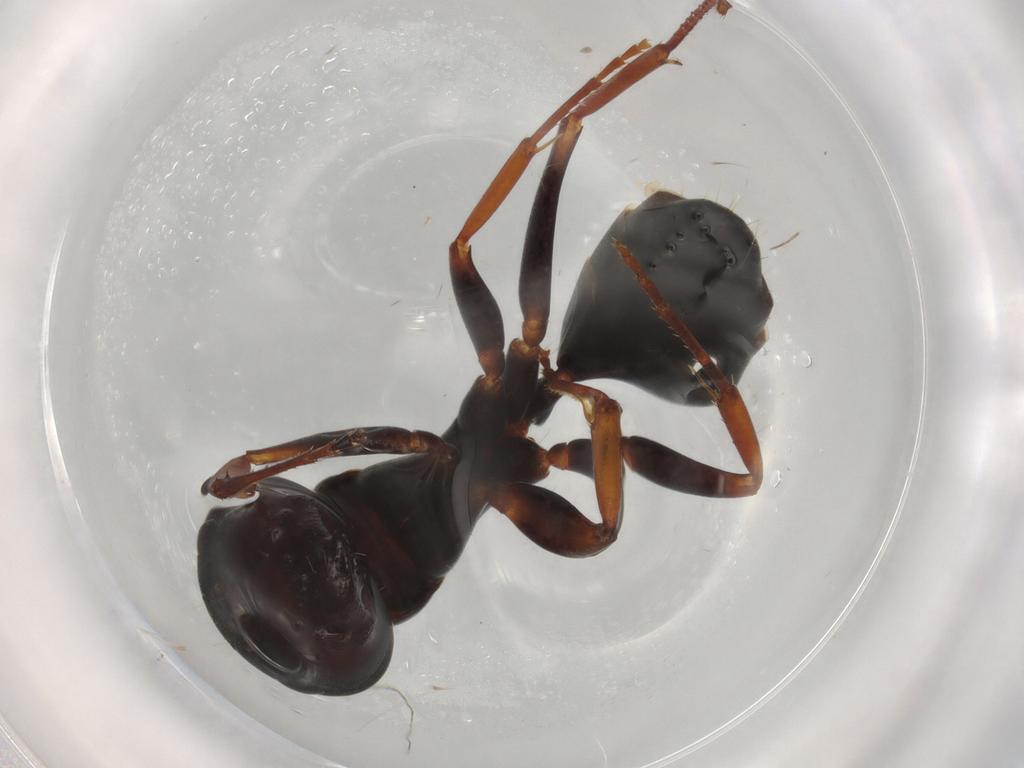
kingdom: Animalia
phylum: Arthropoda
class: Insecta
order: Hymenoptera
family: Formicidae
